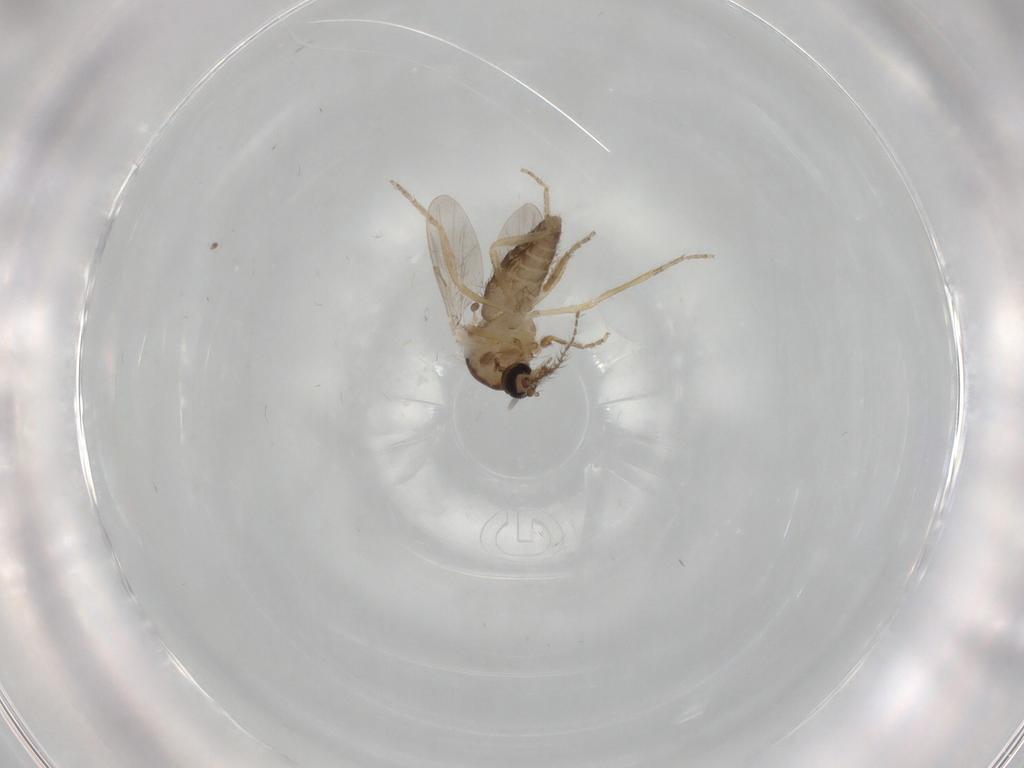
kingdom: Animalia
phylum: Arthropoda
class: Insecta
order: Diptera
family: Ceratopogonidae
